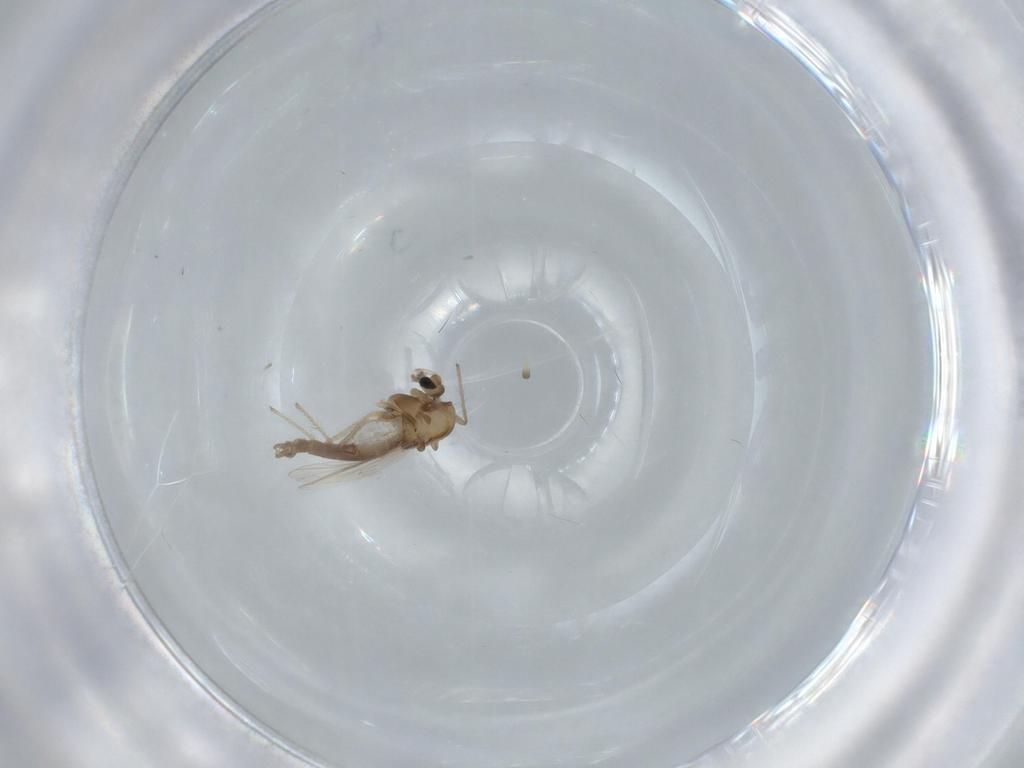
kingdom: Animalia
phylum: Arthropoda
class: Insecta
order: Diptera
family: Chironomidae
